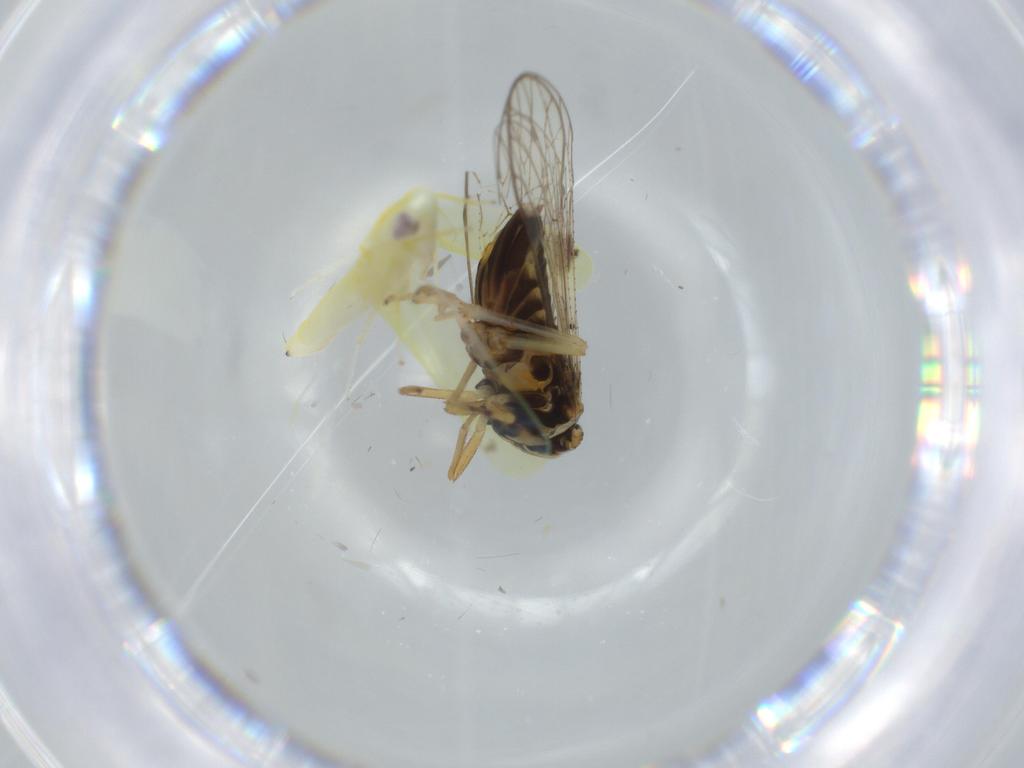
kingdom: Animalia
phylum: Arthropoda
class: Insecta
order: Hemiptera
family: Cicadellidae
